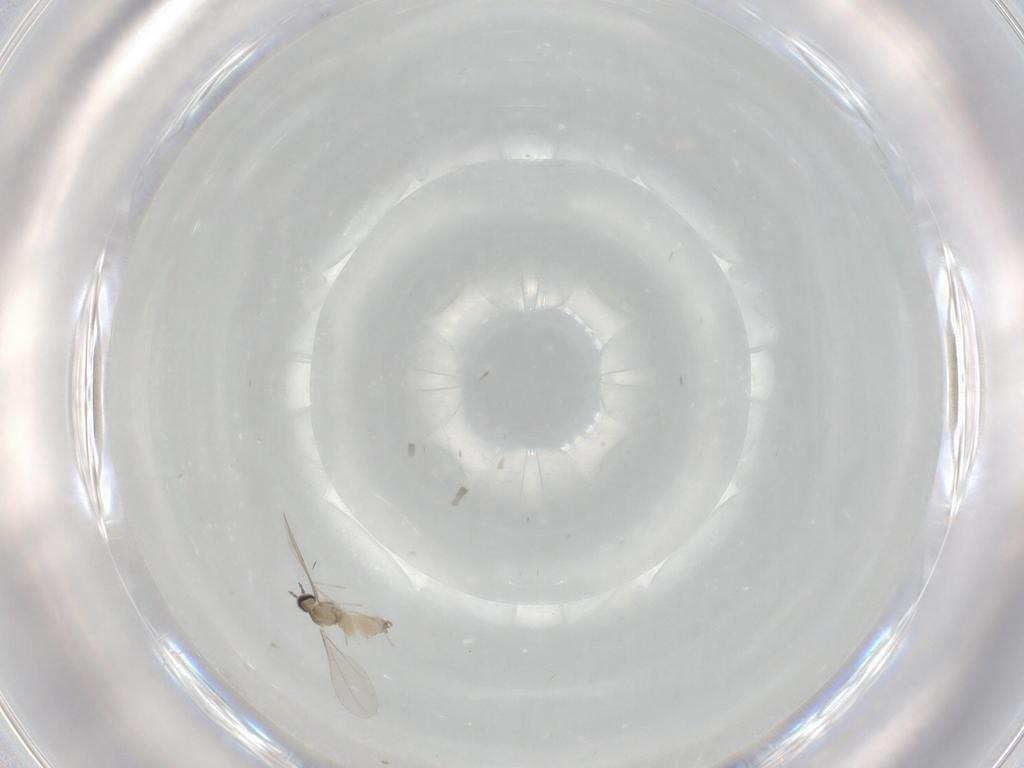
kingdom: Animalia
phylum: Arthropoda
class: Insecta
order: Diptera
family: Cecidomyiidae
